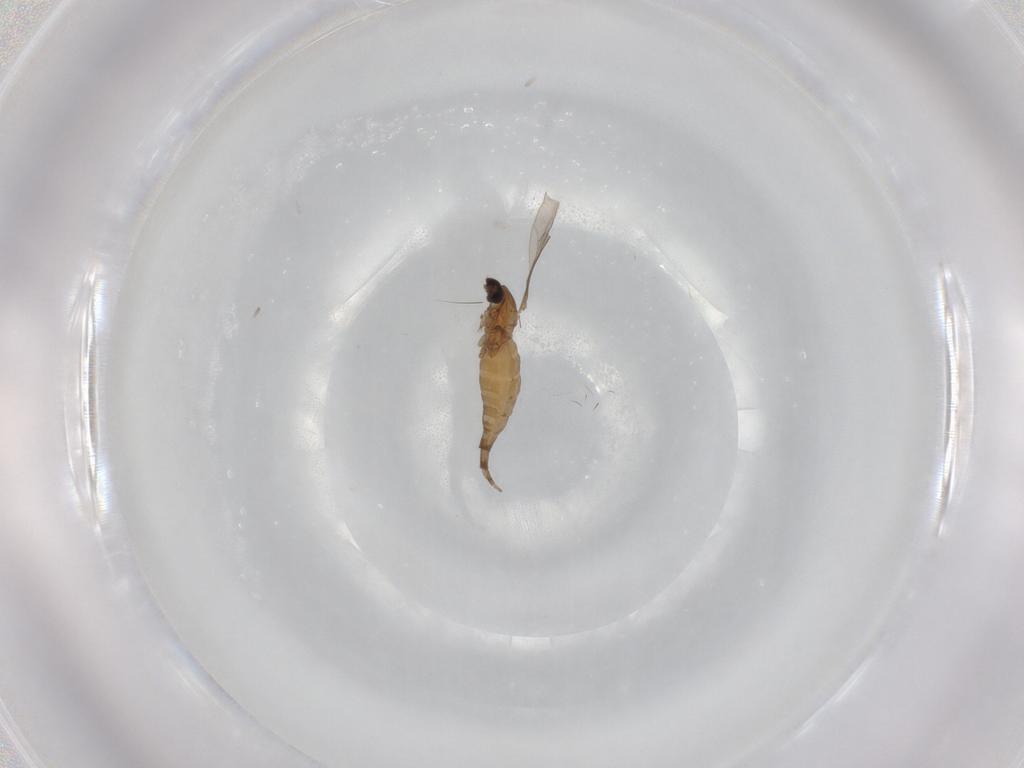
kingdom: Animalia
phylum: Arthropoda
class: Insecta
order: Diptera
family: Cecidomyiidae
